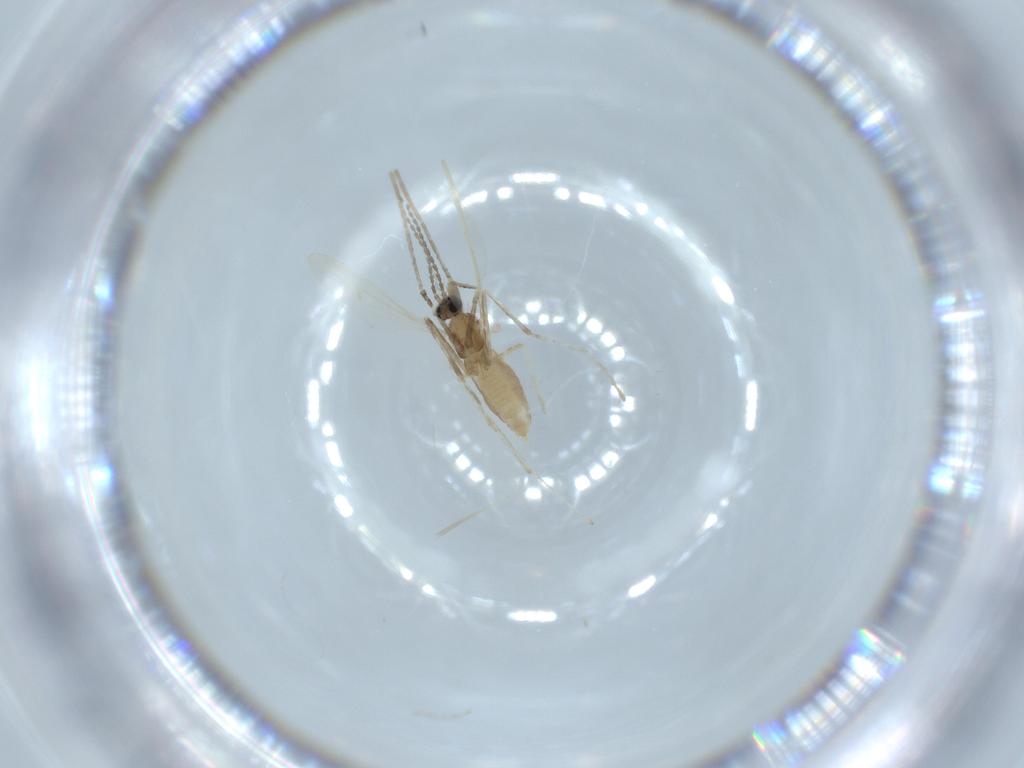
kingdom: Animalia
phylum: Arthropoda
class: Insecta
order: Diptera
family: Cecidomyiidae
